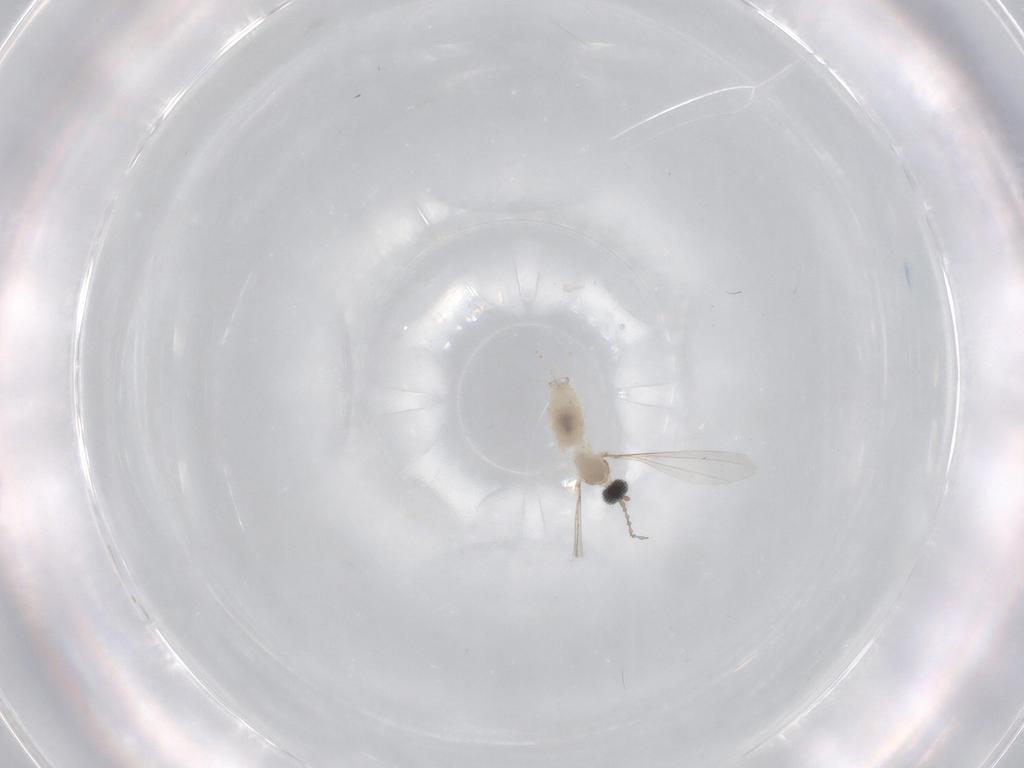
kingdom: Animalia
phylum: Arthropoda
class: Insecta
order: Diptera
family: Cecidomyiidae
